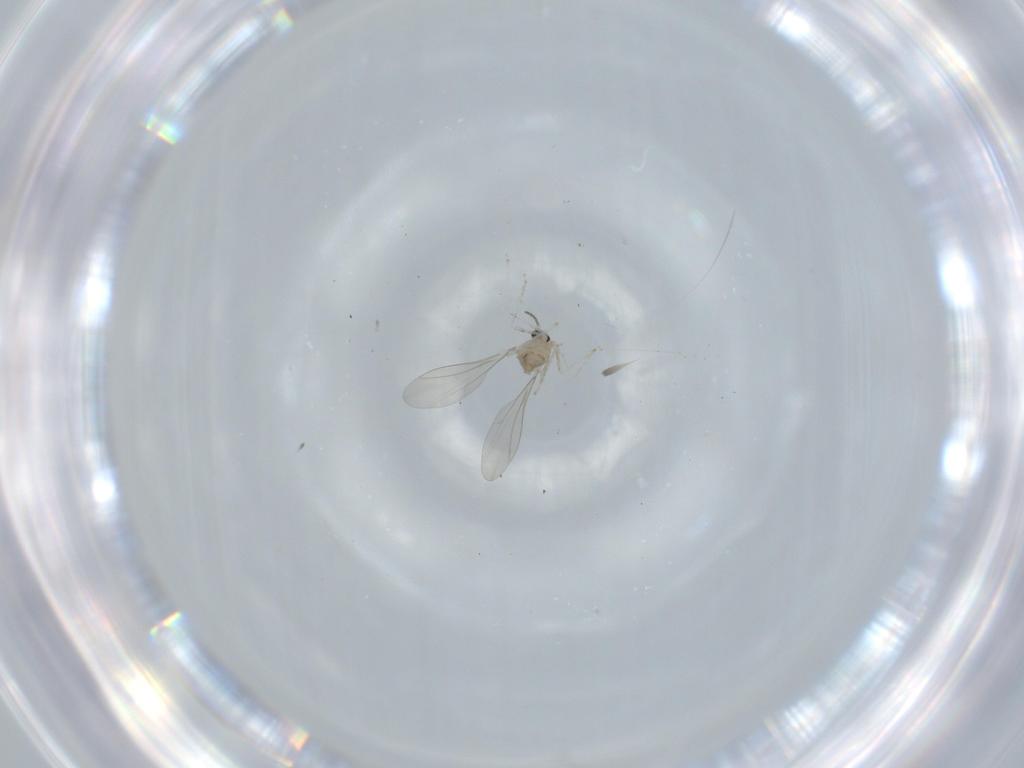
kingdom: Animalia
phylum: Arthropoda
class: Insecta
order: Diptera
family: Cecidomyiidae
